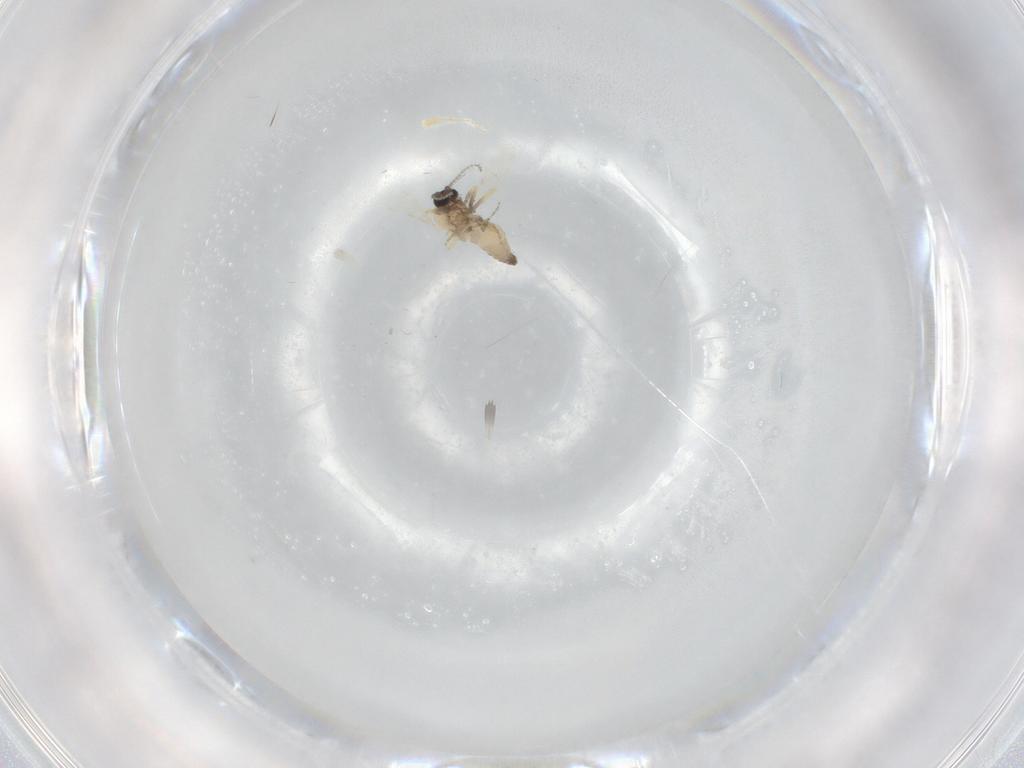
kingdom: Animalia
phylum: Arthropoda
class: Insecta
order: Diptera
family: Ceratopogonidae
